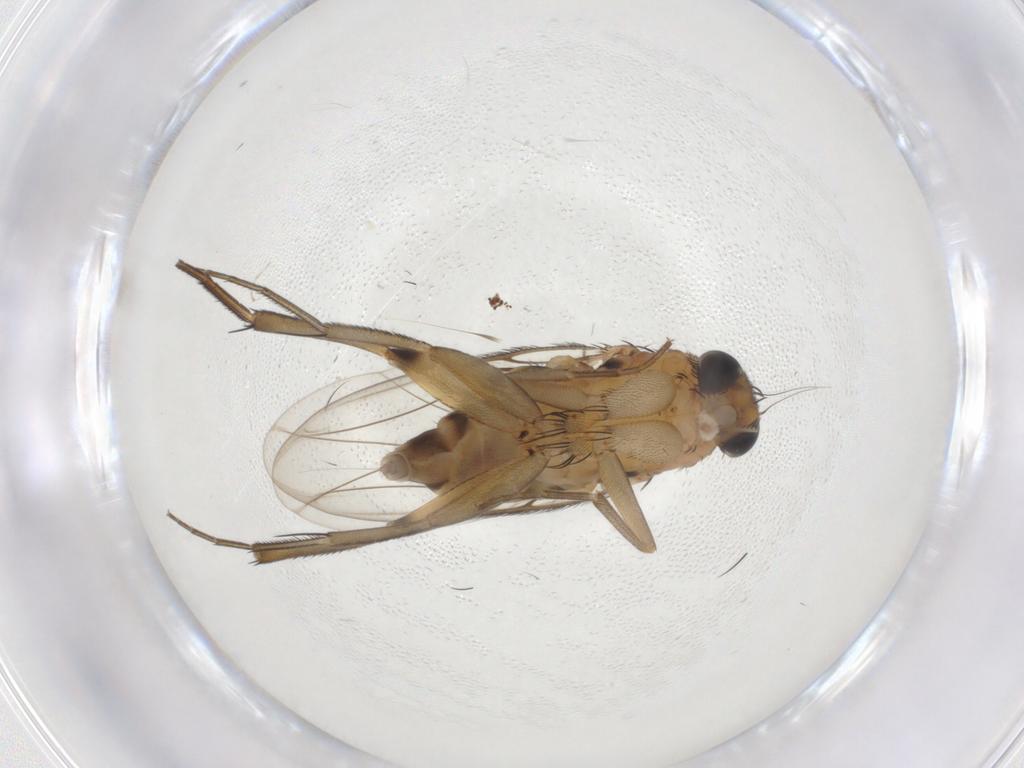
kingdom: Animalia
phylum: Arthropoda
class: Insecta
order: Diptera
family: Phoridae
